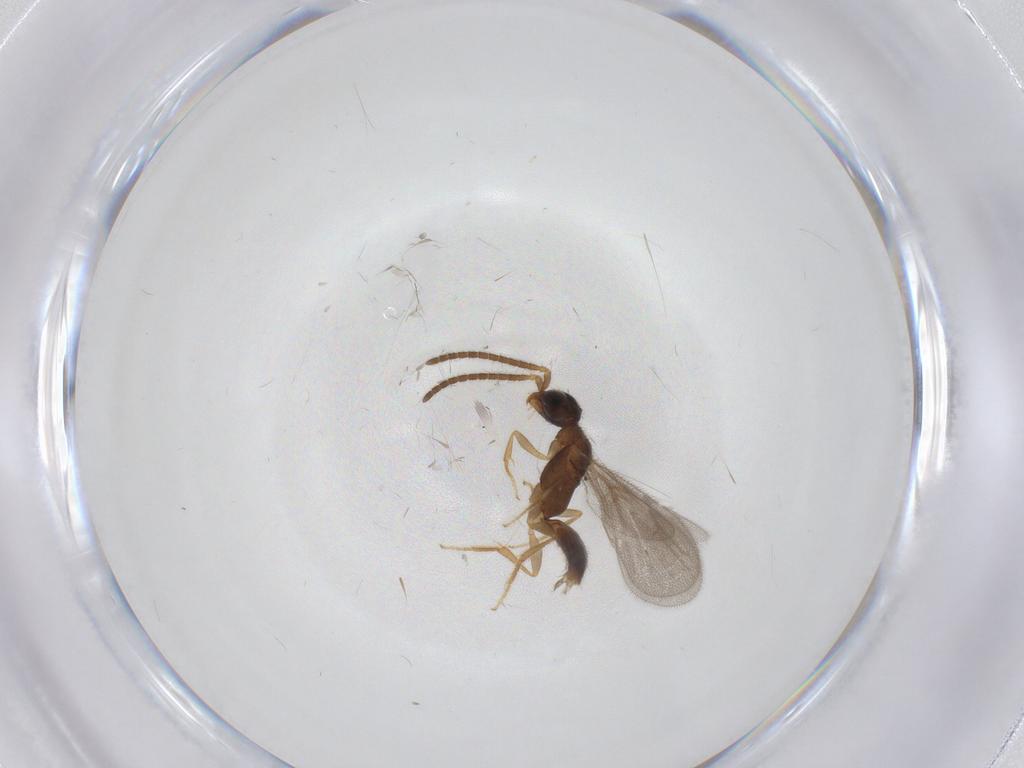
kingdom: Animalia
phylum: Arthropoda
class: Insecta
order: Hymenoptera
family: Bethylidae
